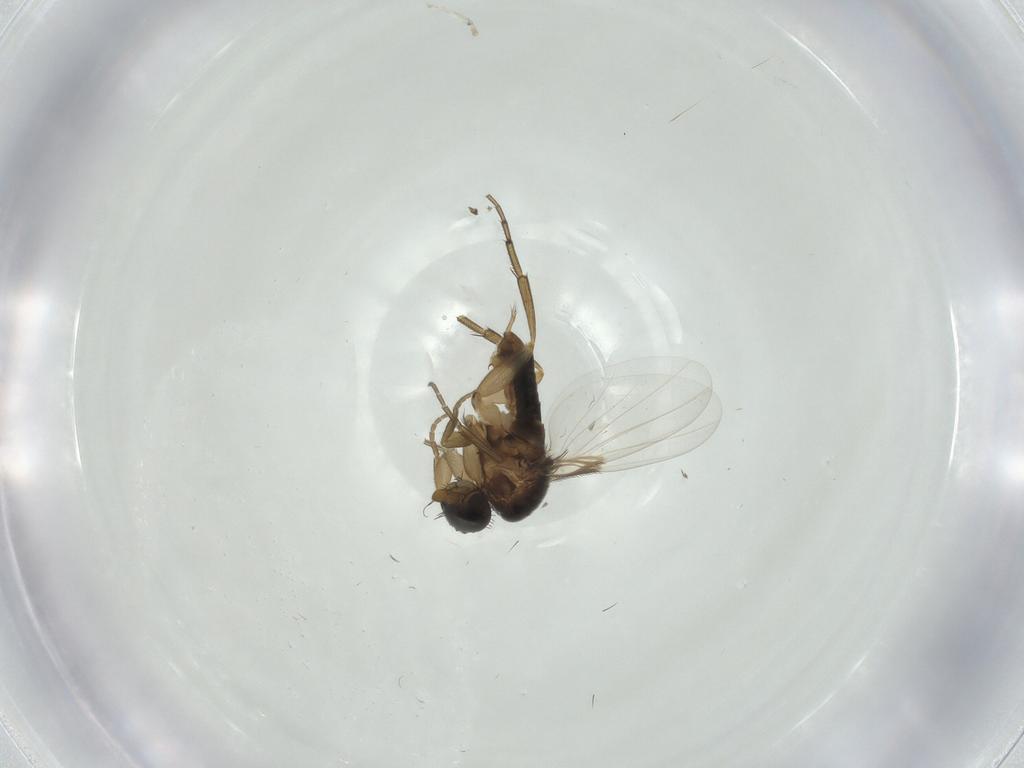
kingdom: Animalia
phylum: Arthropoda
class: Insecta
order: Diptera
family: Phoridae
